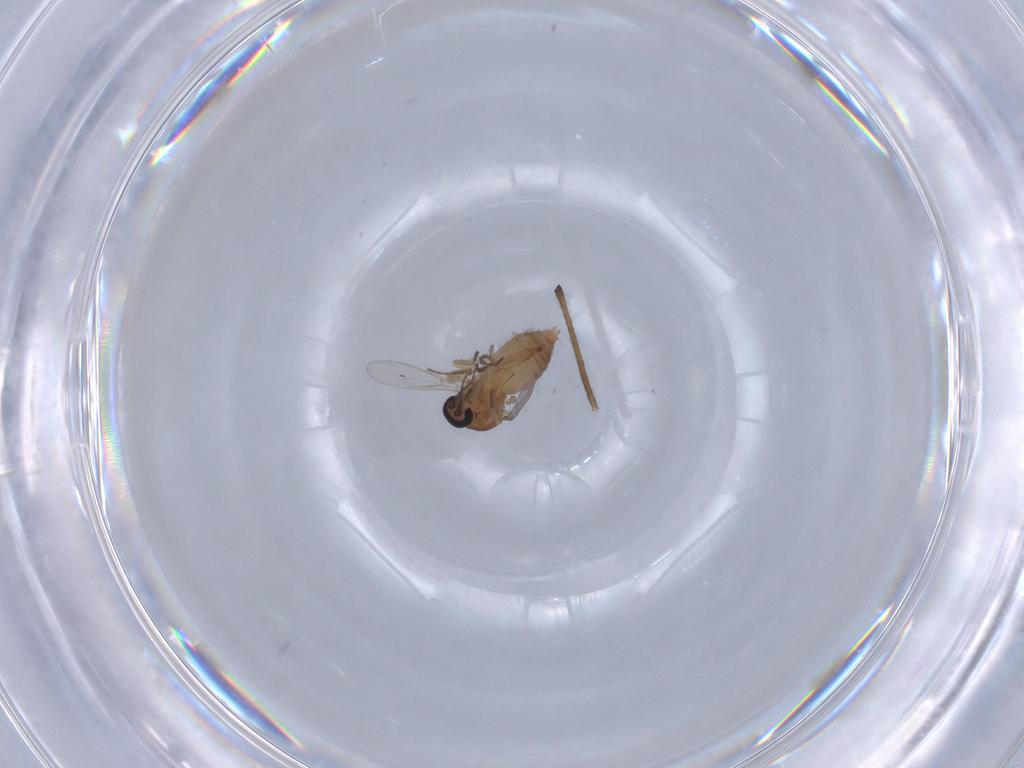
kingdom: Animalia
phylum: Arthropoda
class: Insecta
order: Diptera
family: Ceratopogonidae
